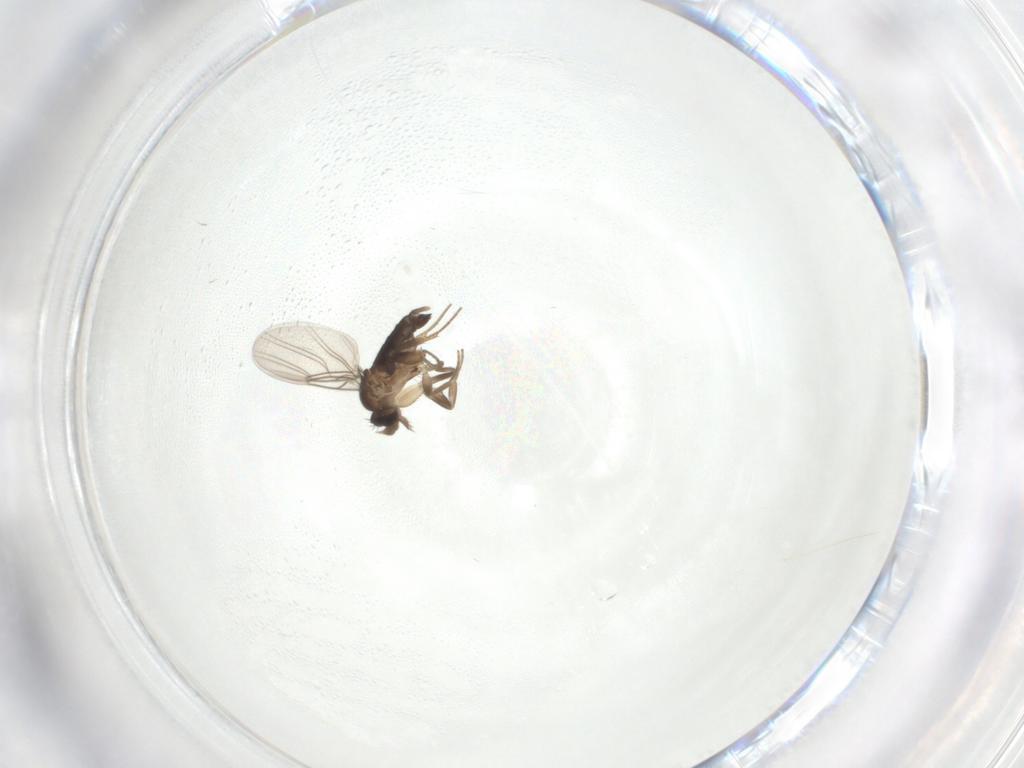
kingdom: Animalia
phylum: Arthropoda
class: Insecta
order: Diptera
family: Phoridae
